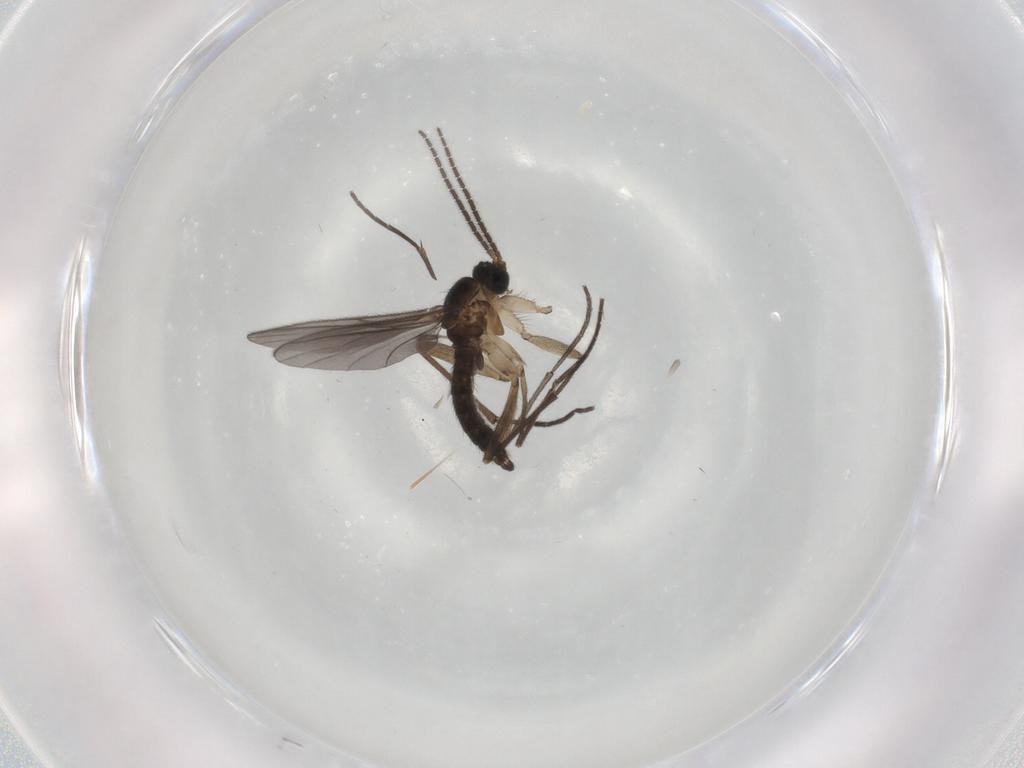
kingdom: Animalia
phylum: Arthropoda
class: Insecta
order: Diptera
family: Sciaridae
